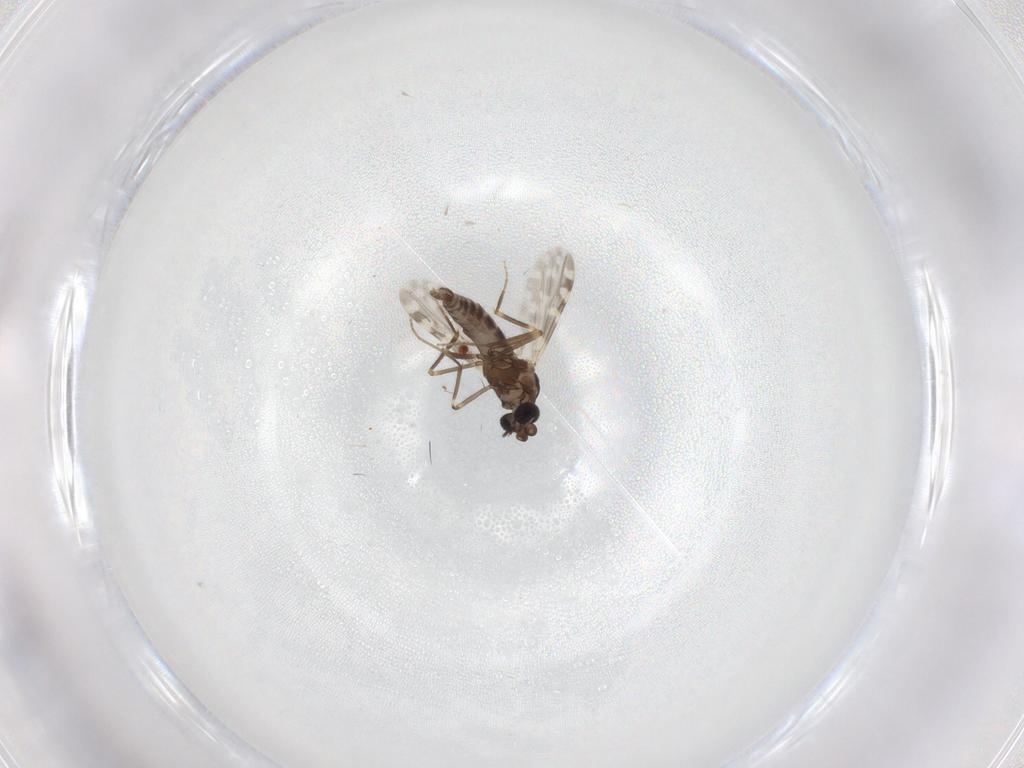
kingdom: Animalia
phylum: Arthropoda
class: Insecta
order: Diptera
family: Ceratopogonidae
